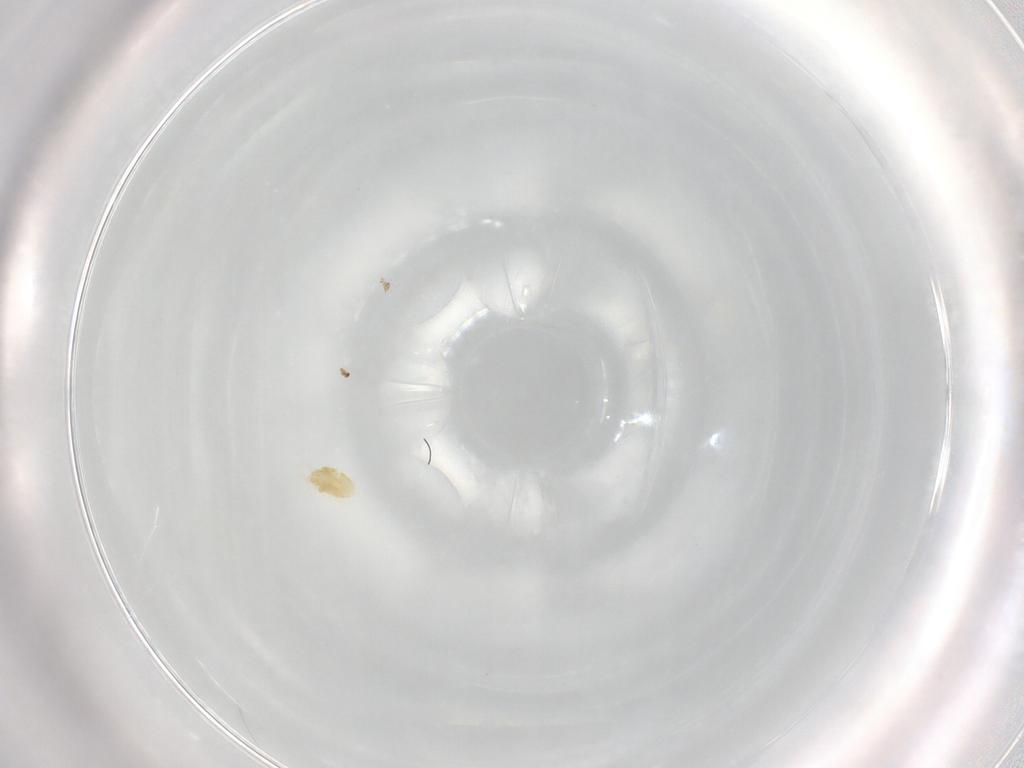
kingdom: Animalia
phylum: Arthropoda
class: Arachnida
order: Trombidiformes
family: Eupodidae
